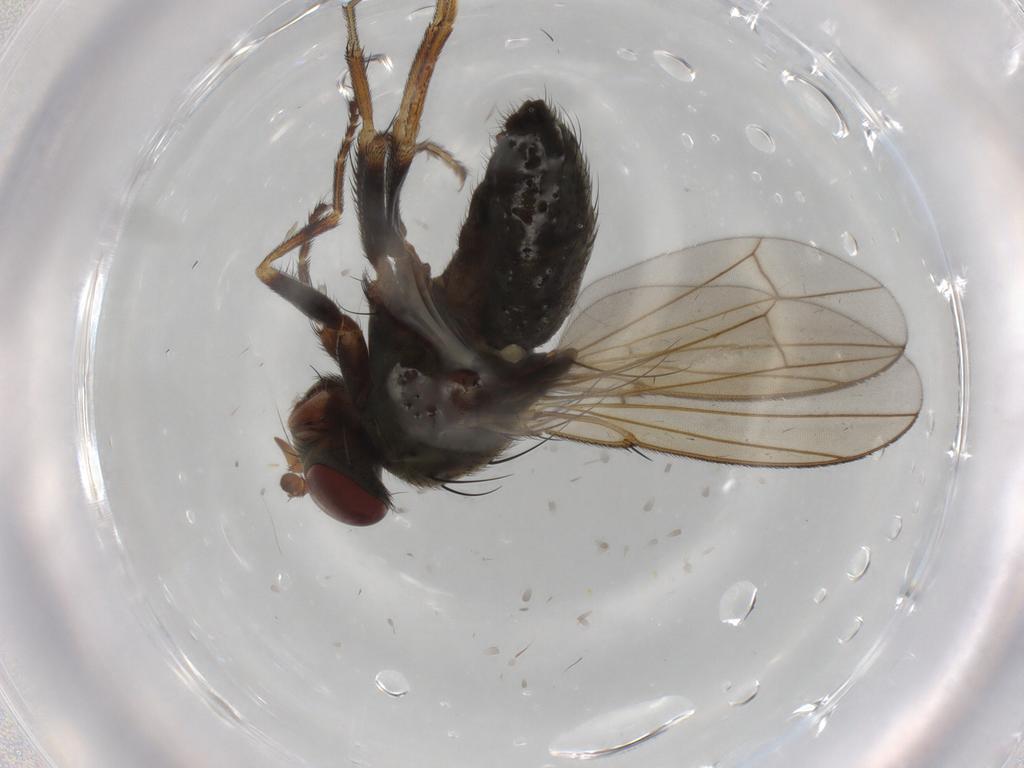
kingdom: Animalia
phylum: Arthropoda
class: Insecta
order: Diptera
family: Ephydridae
